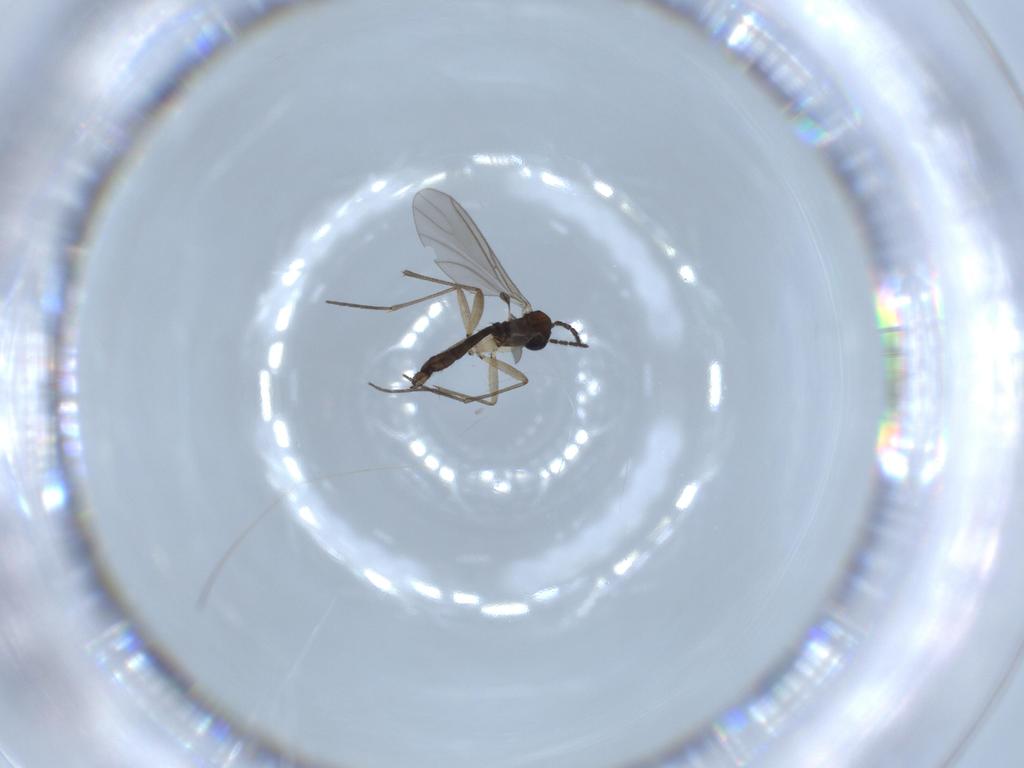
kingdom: Animalia
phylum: Arthropoda
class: Insecta
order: Diptera
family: Sciaridae
